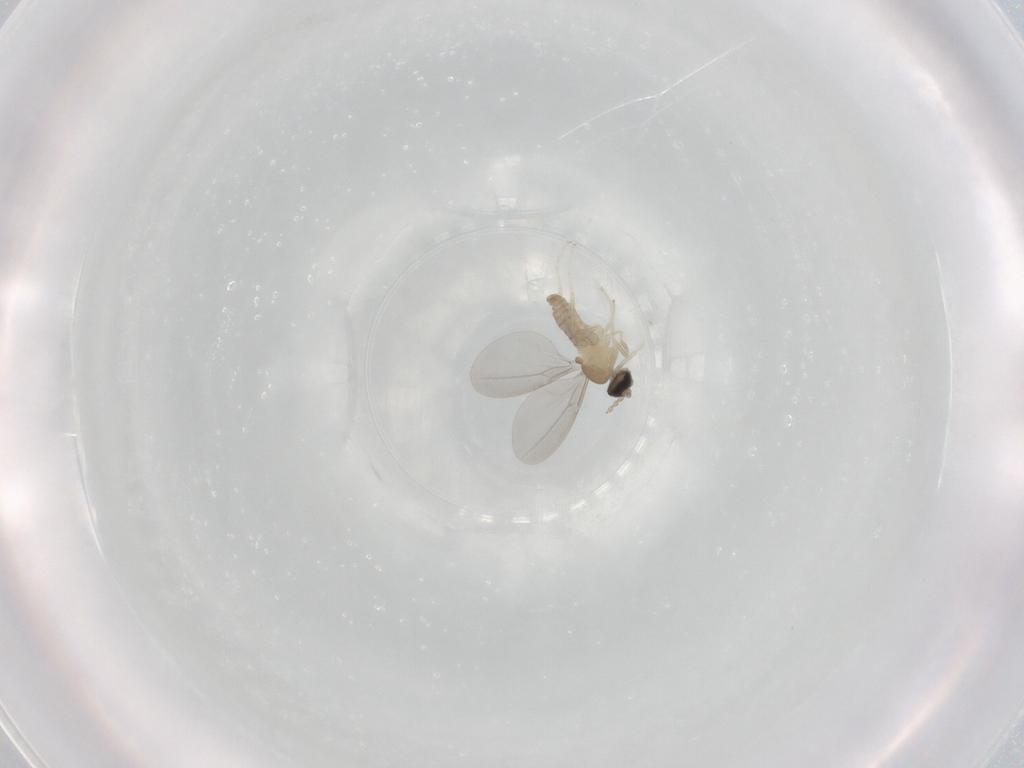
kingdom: Animalia
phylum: Arthropoda
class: Insecta
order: Diptera
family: Cecidomyiidae
